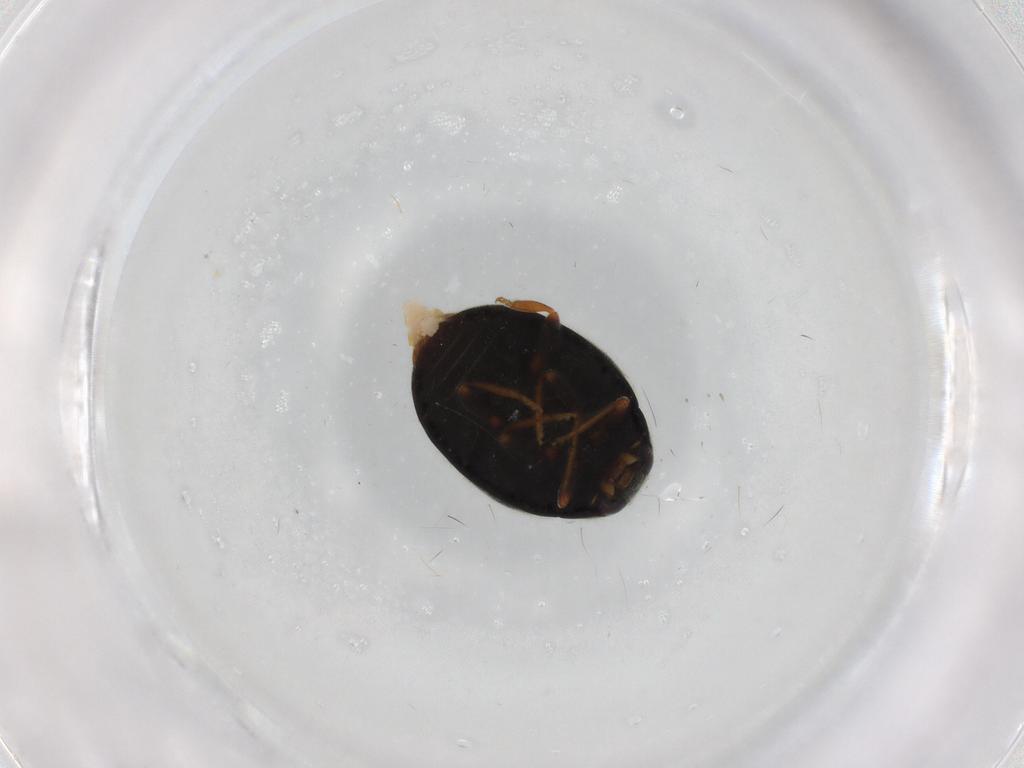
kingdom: Animalia
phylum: Arthropoda
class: Insecta
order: Coleoptera
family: Coccinellidae
